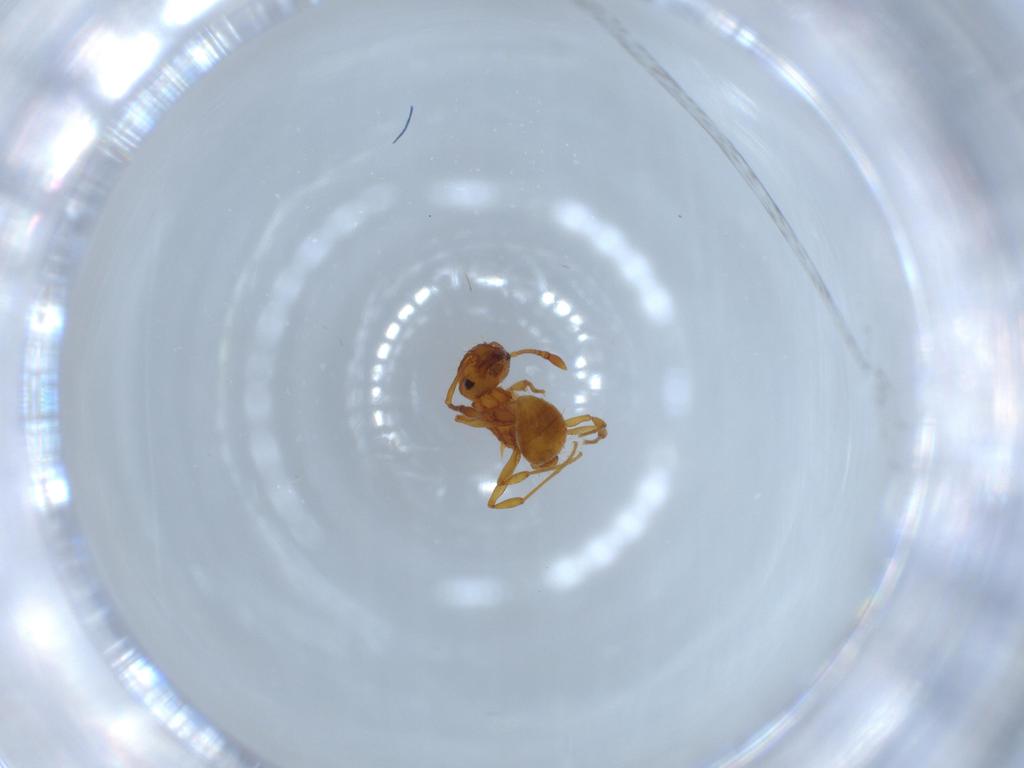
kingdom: Animalia
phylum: Arthropoda
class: Insecta
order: Hymenoptera
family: Formicidae
